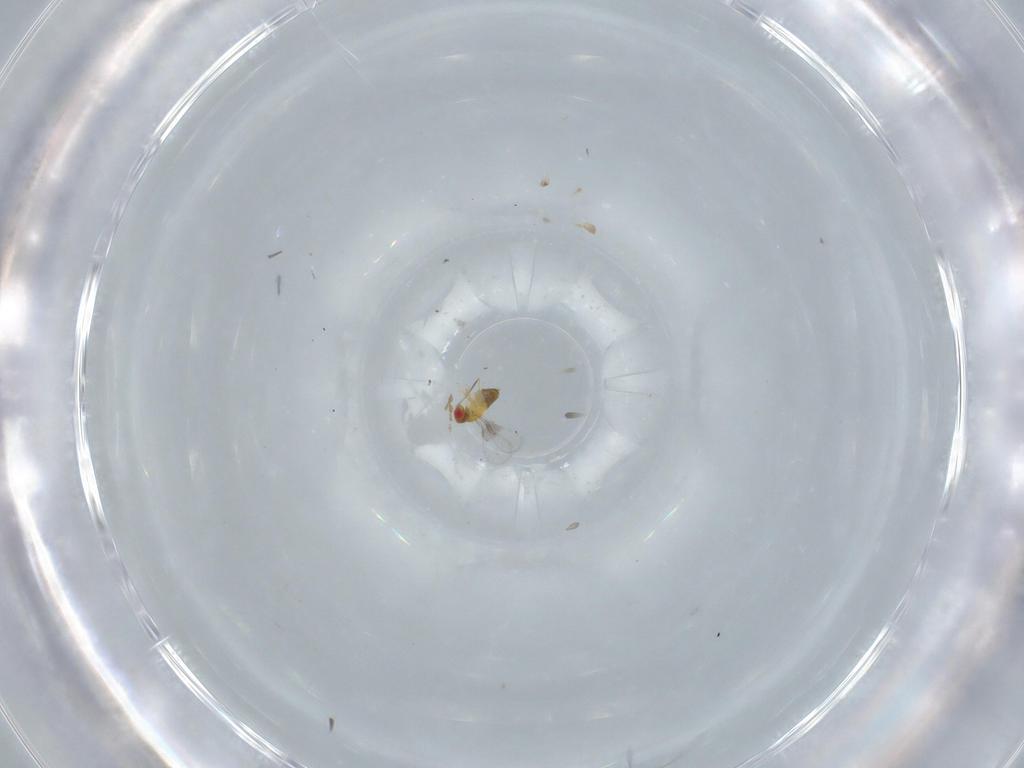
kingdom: Animalia
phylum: Arthropoda
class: Insecta
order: Hymenoptera
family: Trichogrammatidae
